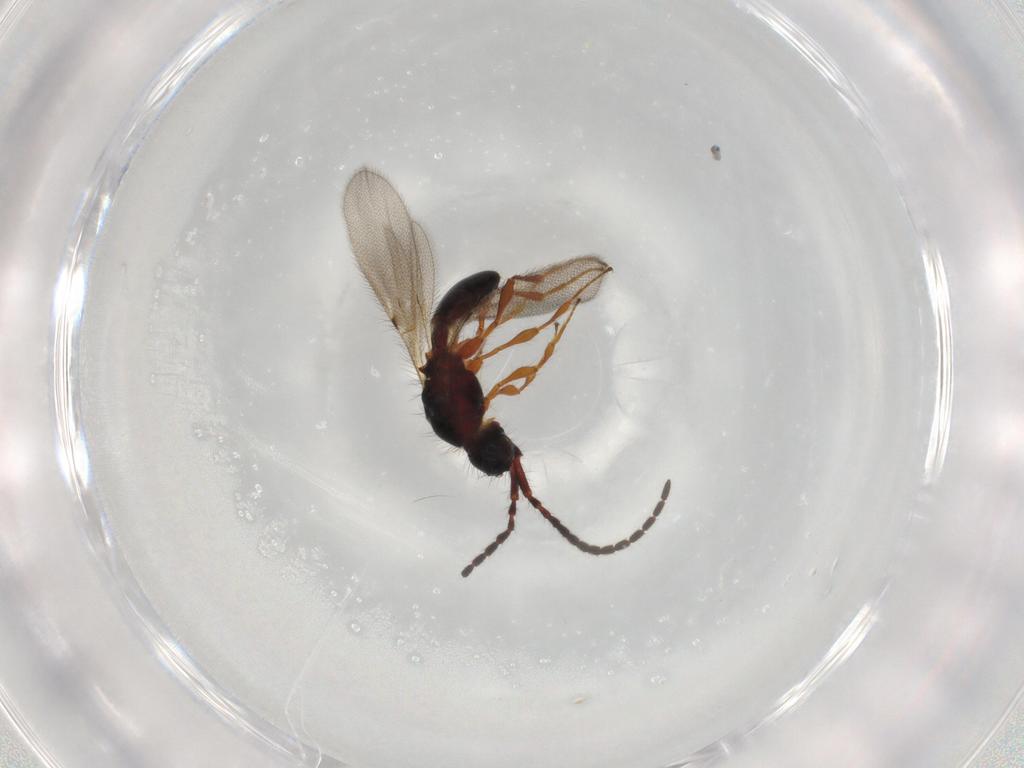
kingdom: Animalia
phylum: Arthropoda
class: Insecta
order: Hymenoptera
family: Diapriidae
